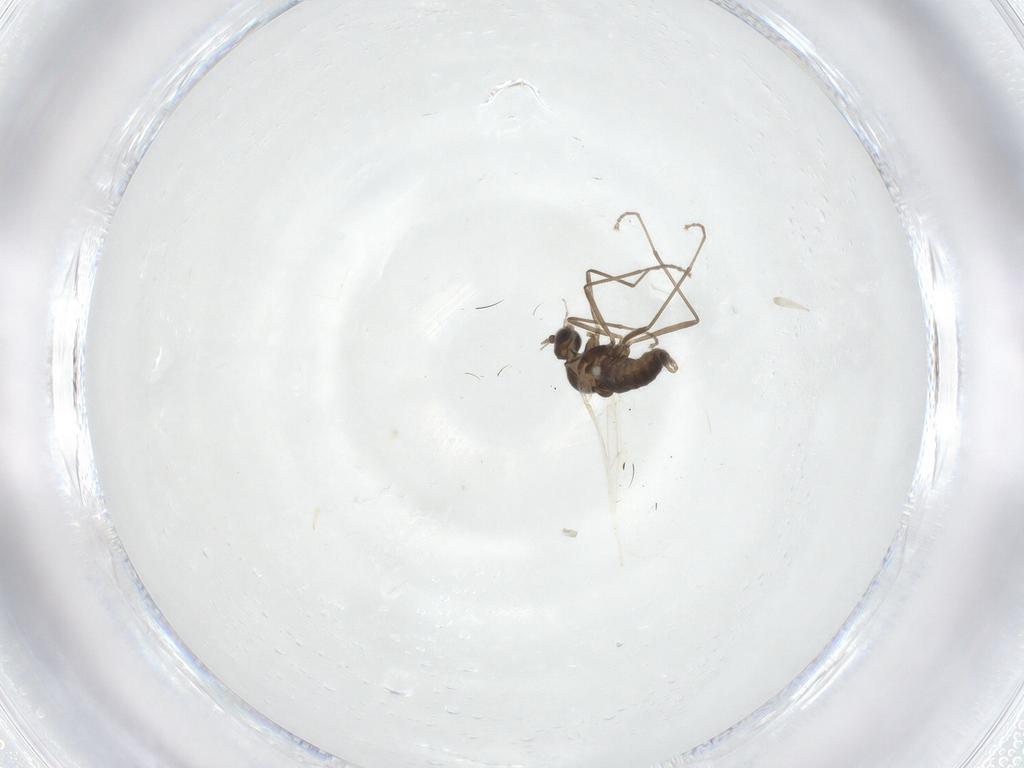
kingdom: Animalia
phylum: Arthropoda
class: Insecta
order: Diptera
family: Cecidomyiidae
